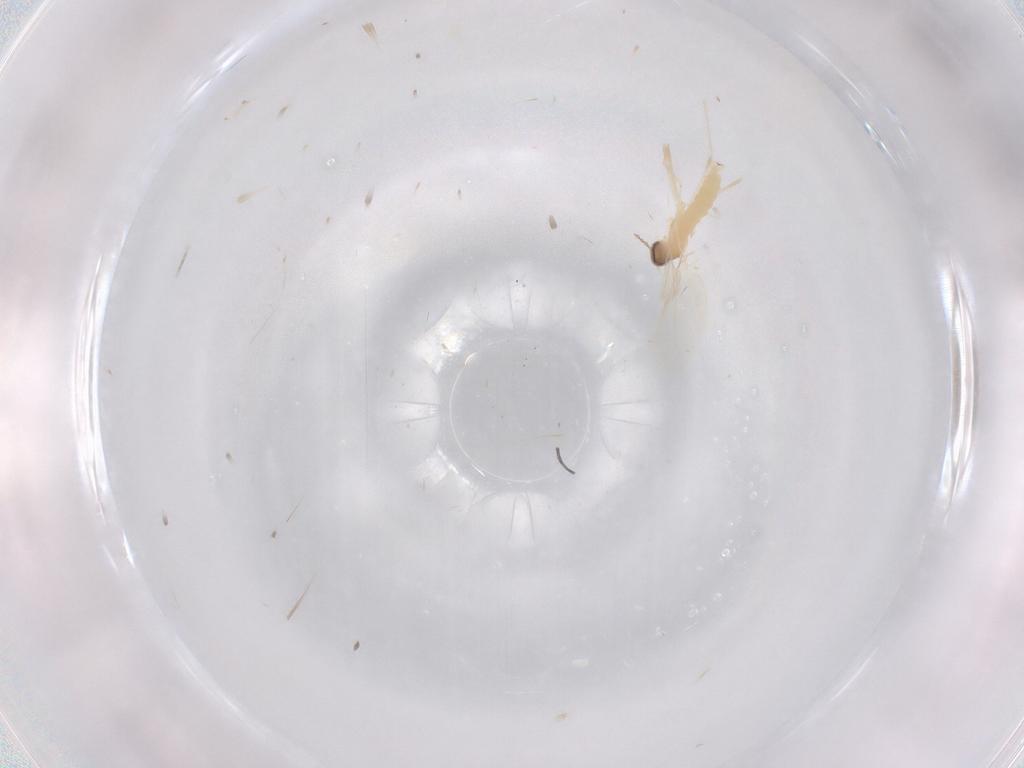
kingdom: Animalia
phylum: Arthropoda
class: Insecta
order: Diptera
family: Cecidomyiidae
